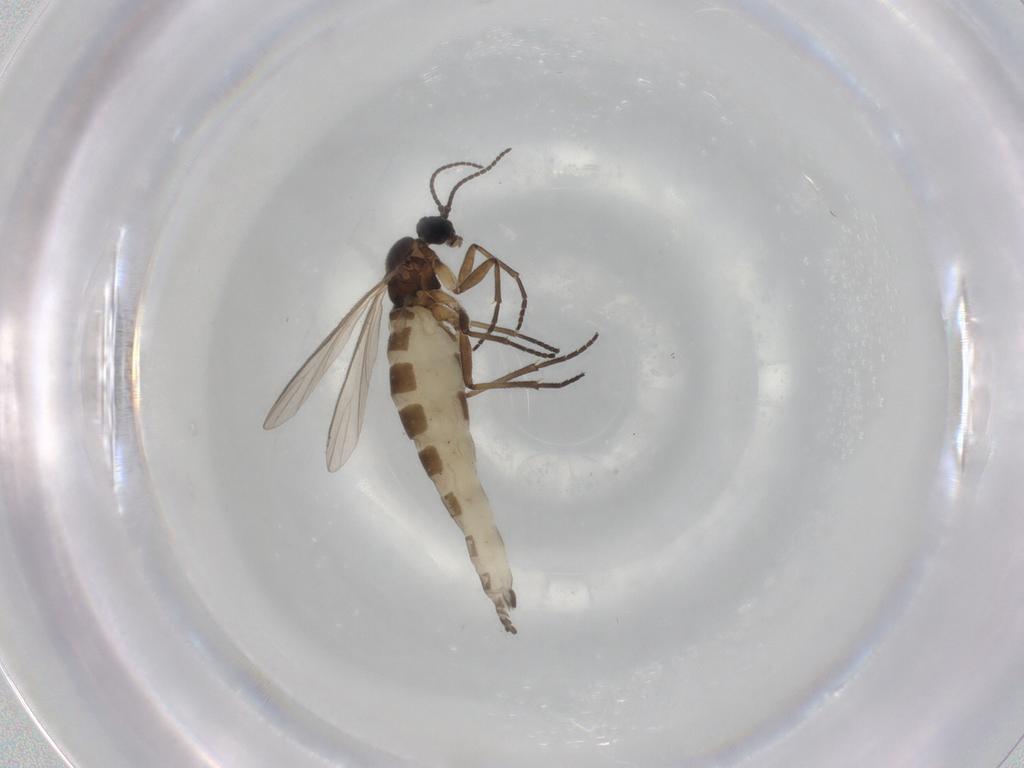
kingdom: Animalia
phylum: Arthropoda
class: Insecta
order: Diptera
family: Sciaridae
